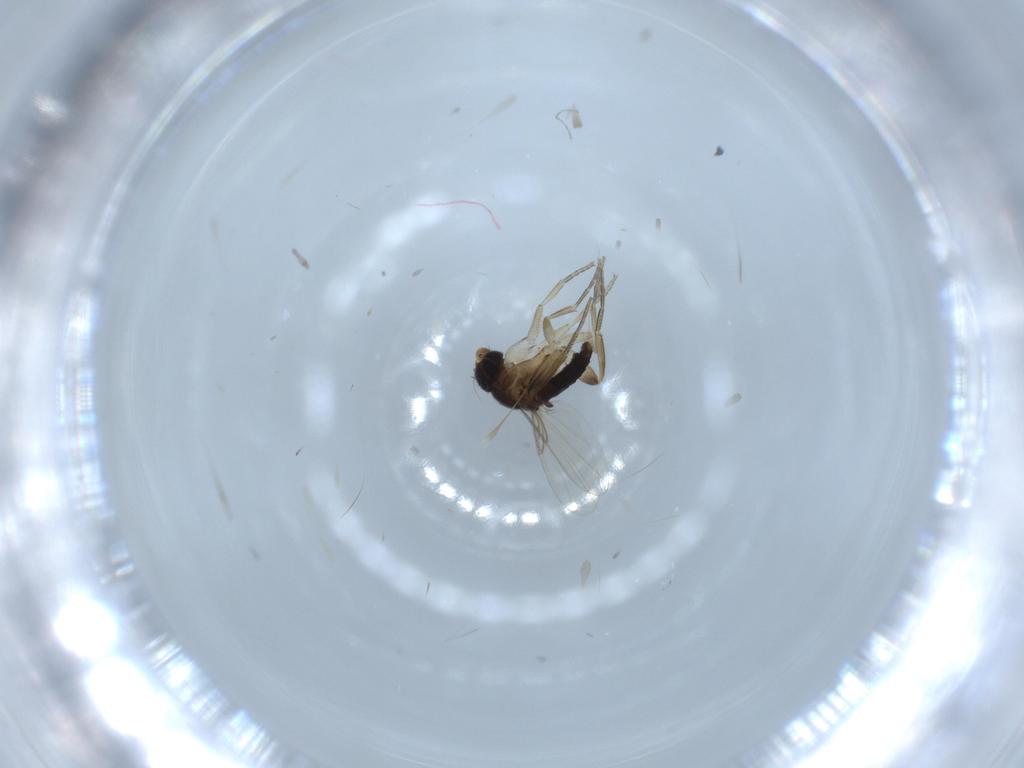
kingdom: Animalia
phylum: Arthropoda
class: Insecta
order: Diptera
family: Phoridae
